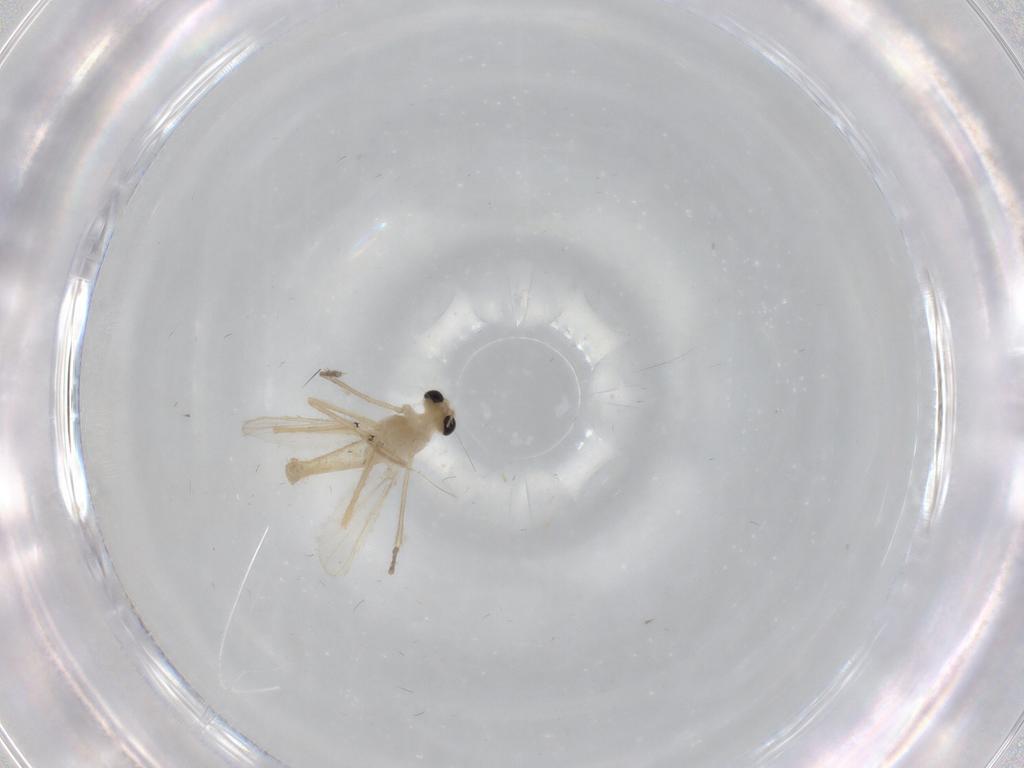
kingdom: Animalia
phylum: Arthropoda
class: Insecta
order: Diptera
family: Chironomidae
